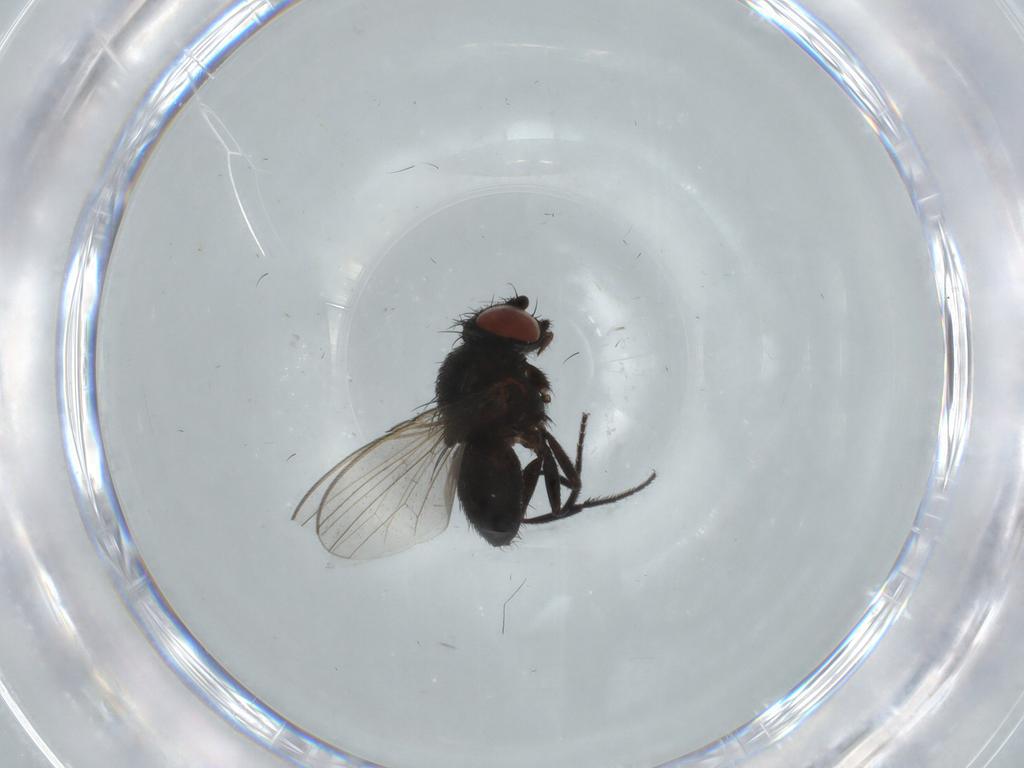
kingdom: Animalia
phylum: Arthropoda
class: Insecta
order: Diptera
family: Milichiidae
